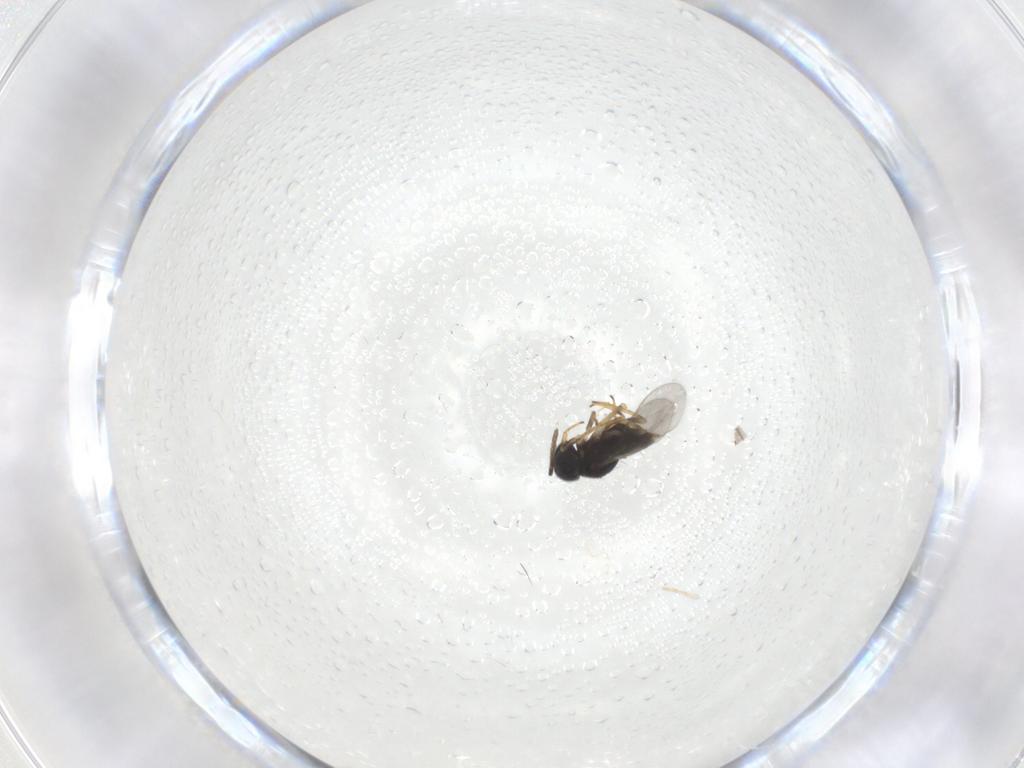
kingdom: Animalia
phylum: Arthropoda
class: Insecta
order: Hymenoptera
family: Encyrtidae
